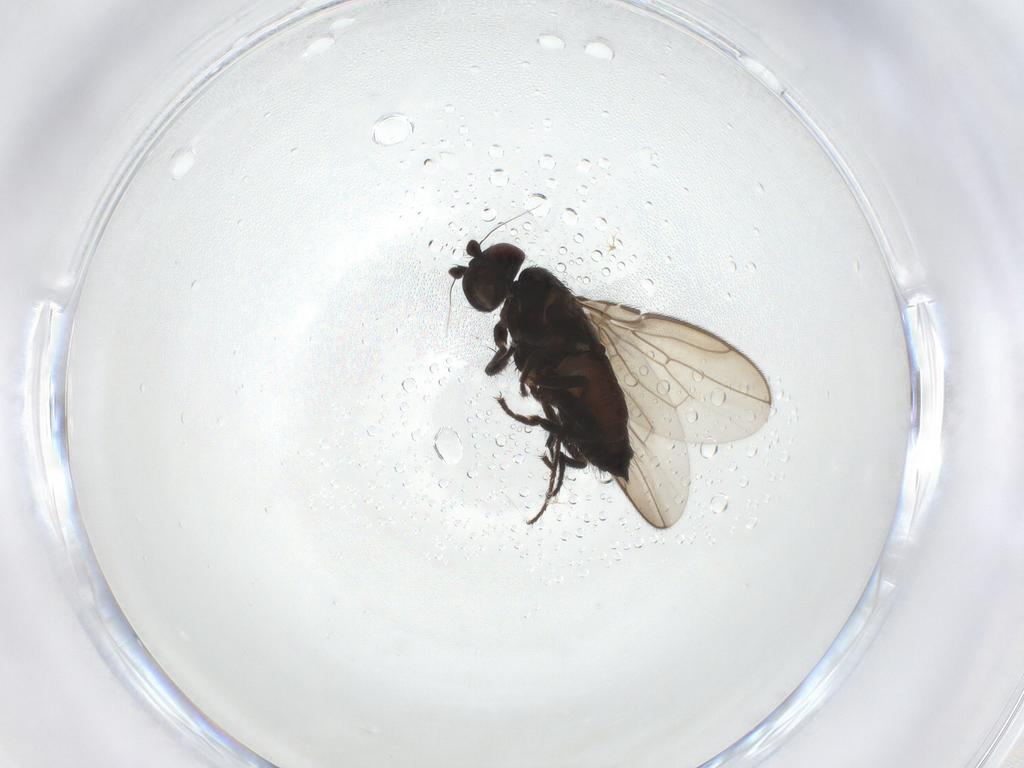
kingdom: Animalia
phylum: Arthropoda
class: Insecta
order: Diptera
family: Sphaeroceridae
